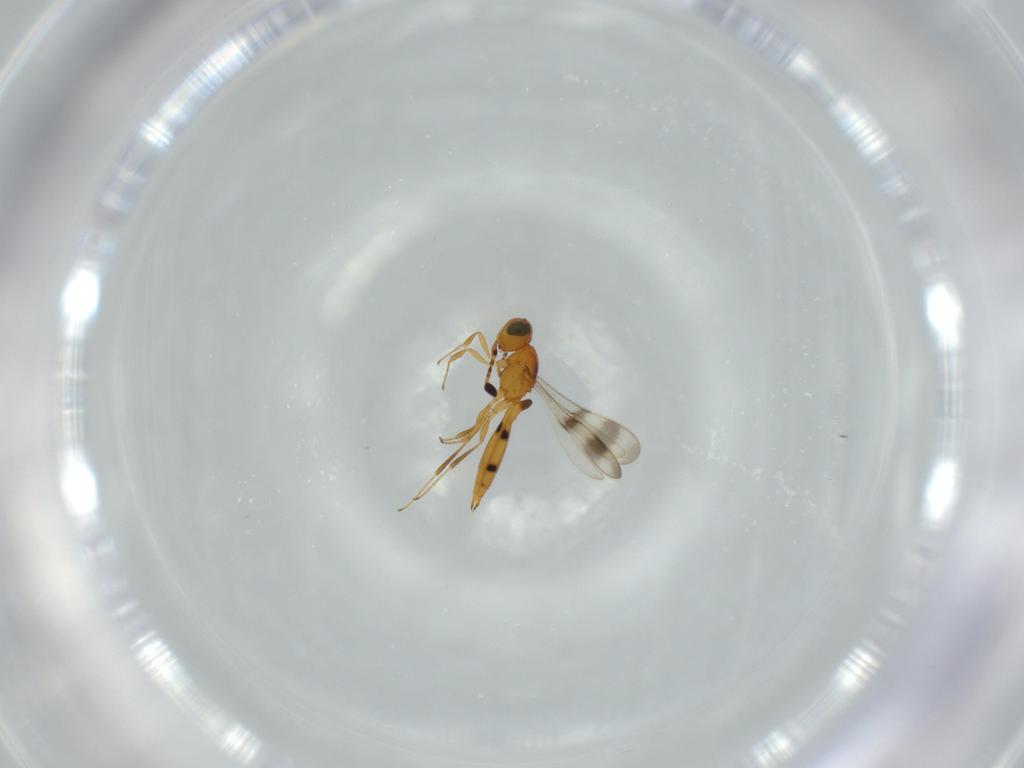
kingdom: Animalia
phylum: Arthropoda
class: Insecta
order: Hymenoptera
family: Scelionidae
